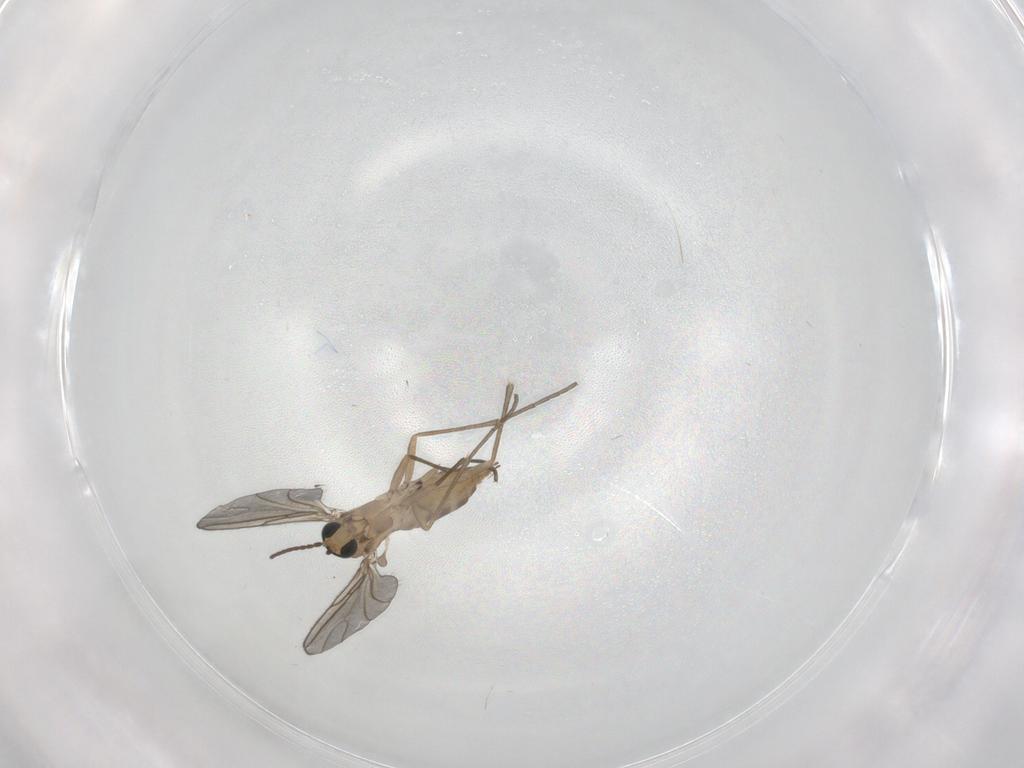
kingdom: Animalia
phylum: Arthropoda
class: Insecta
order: Diptera
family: Sciaridae
